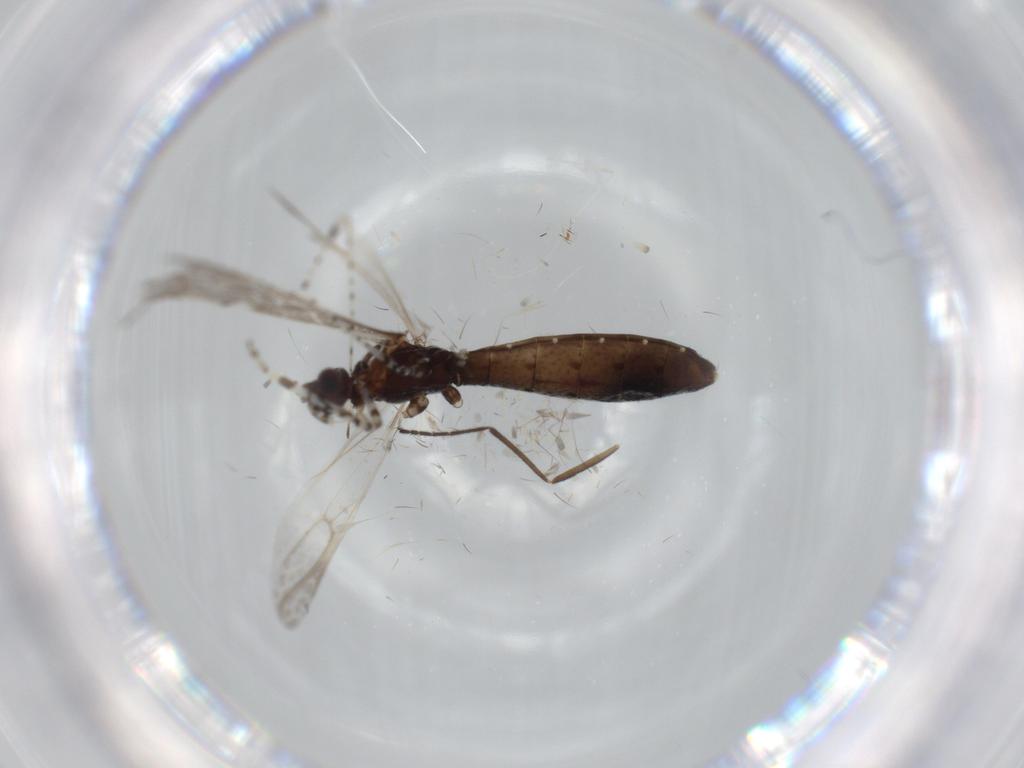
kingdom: Animalia
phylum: Arthropoda
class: Insecta
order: Hemiptera
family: Reduviidae
